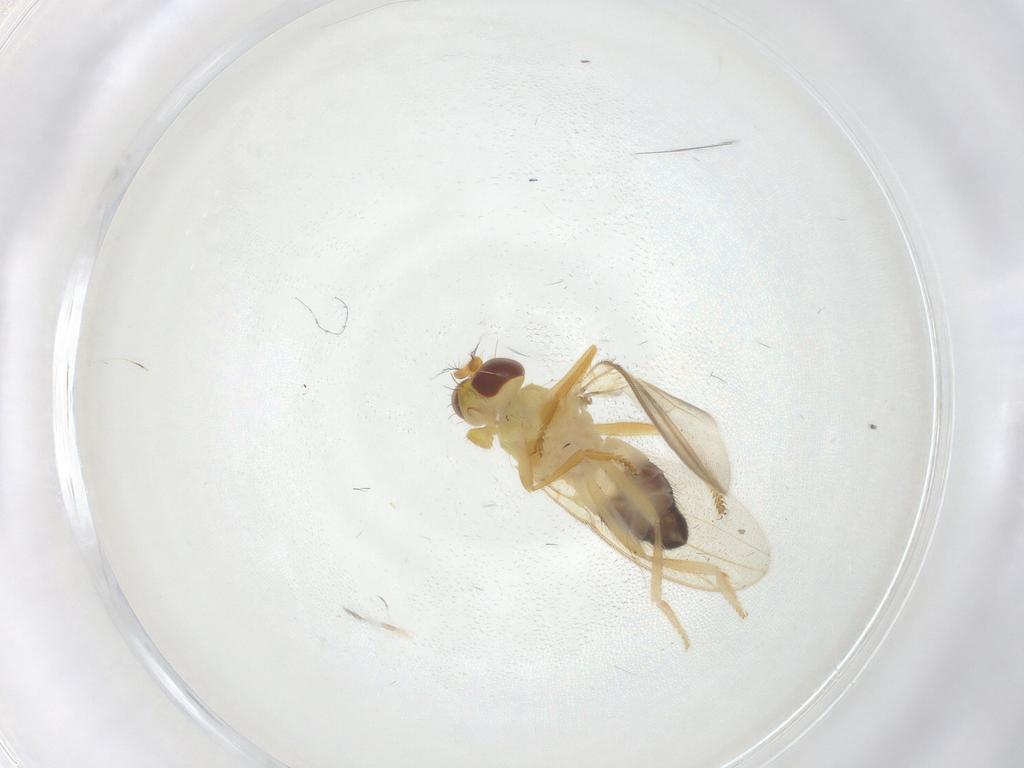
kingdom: Animalia
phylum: Arthropoda
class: Insecta
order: Diptera
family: Periscelididae
